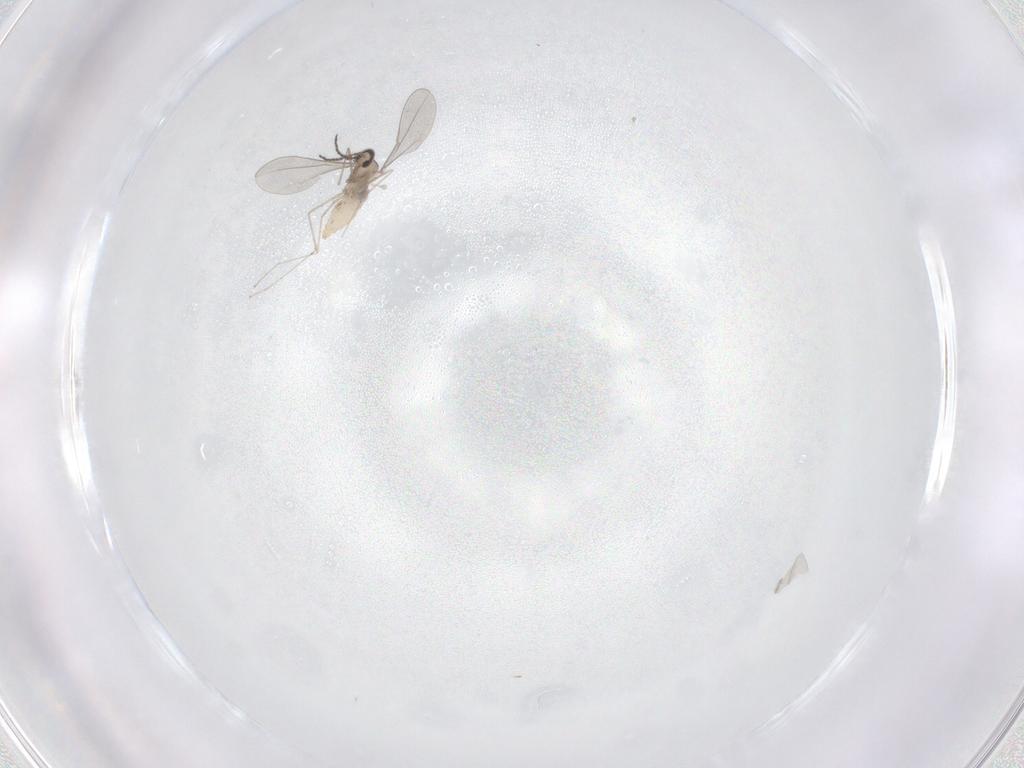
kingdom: Animalia
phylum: Arthropoda
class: Insecta
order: Diptera
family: Cecidomyiidae
